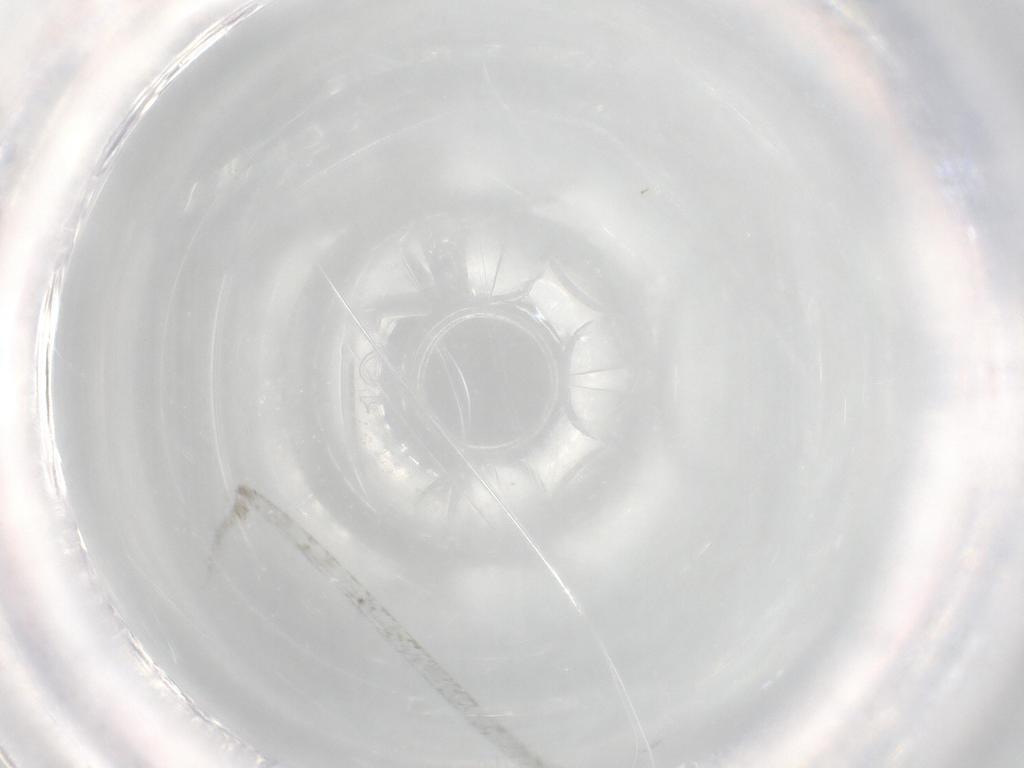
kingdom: Animalia
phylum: Arthropoda
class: Insecta
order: Diptera
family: Cecidomyiidae
